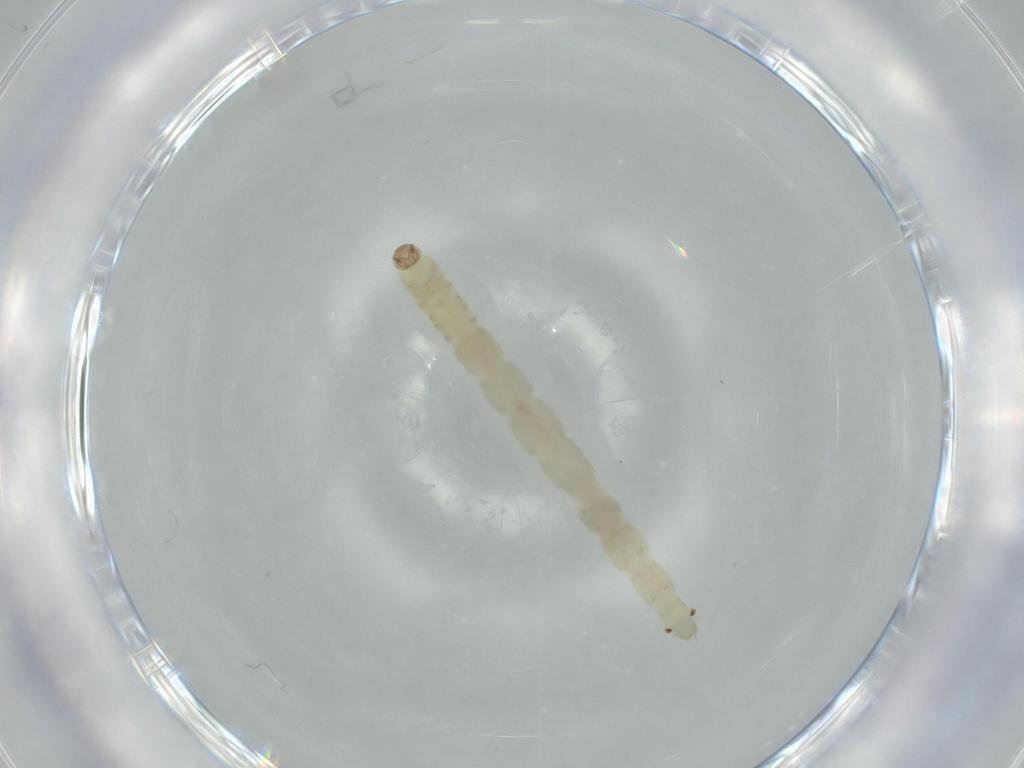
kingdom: Animalia
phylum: Arthropoda
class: Insecta
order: Diptera
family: Chironomidae
